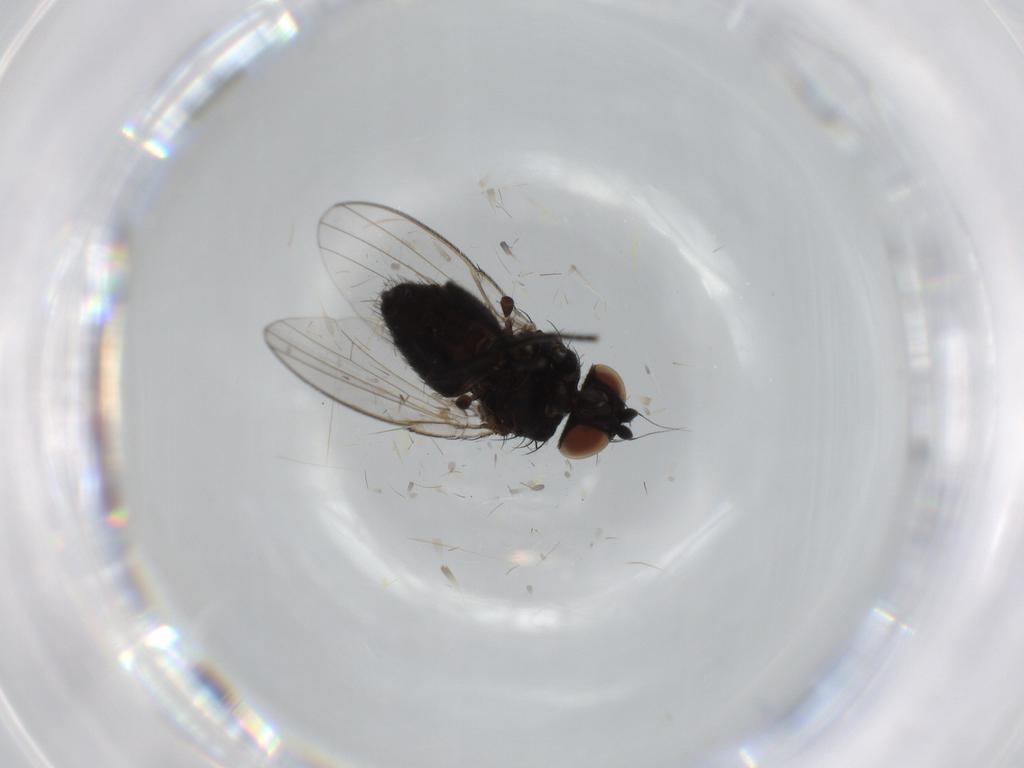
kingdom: Animalia
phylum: Arthropoda
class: Insecta
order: Diptera
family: Milichiidae
